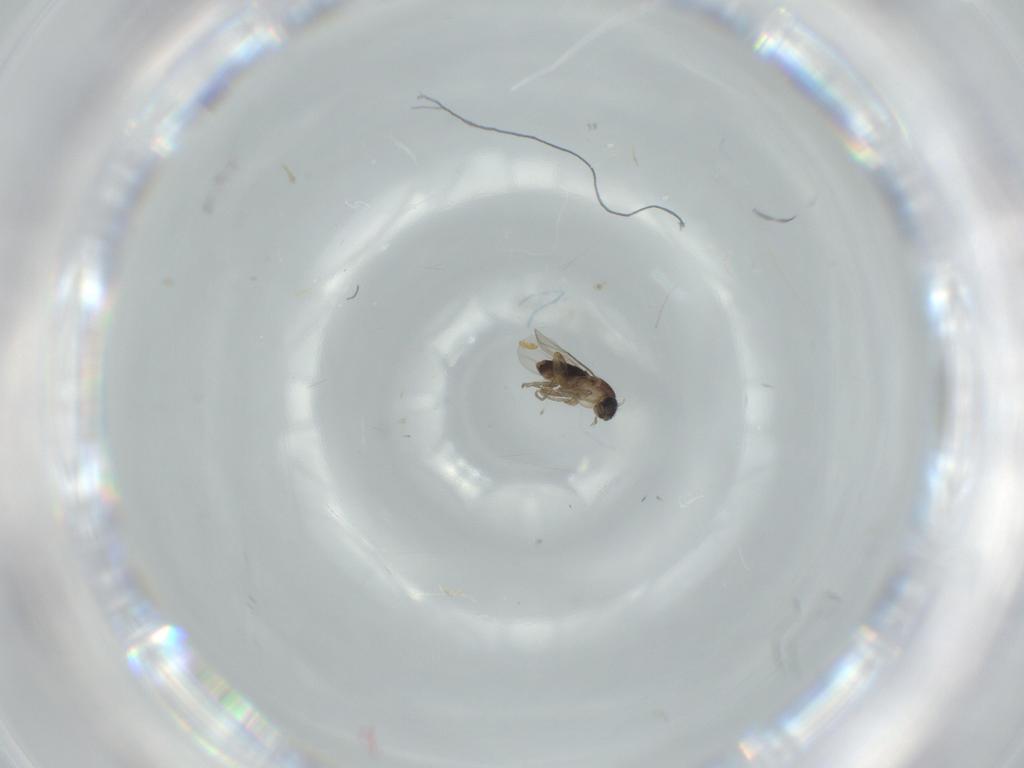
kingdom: Animalia
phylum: Arthropoda
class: Insecta
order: Diptera
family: Phoridae
